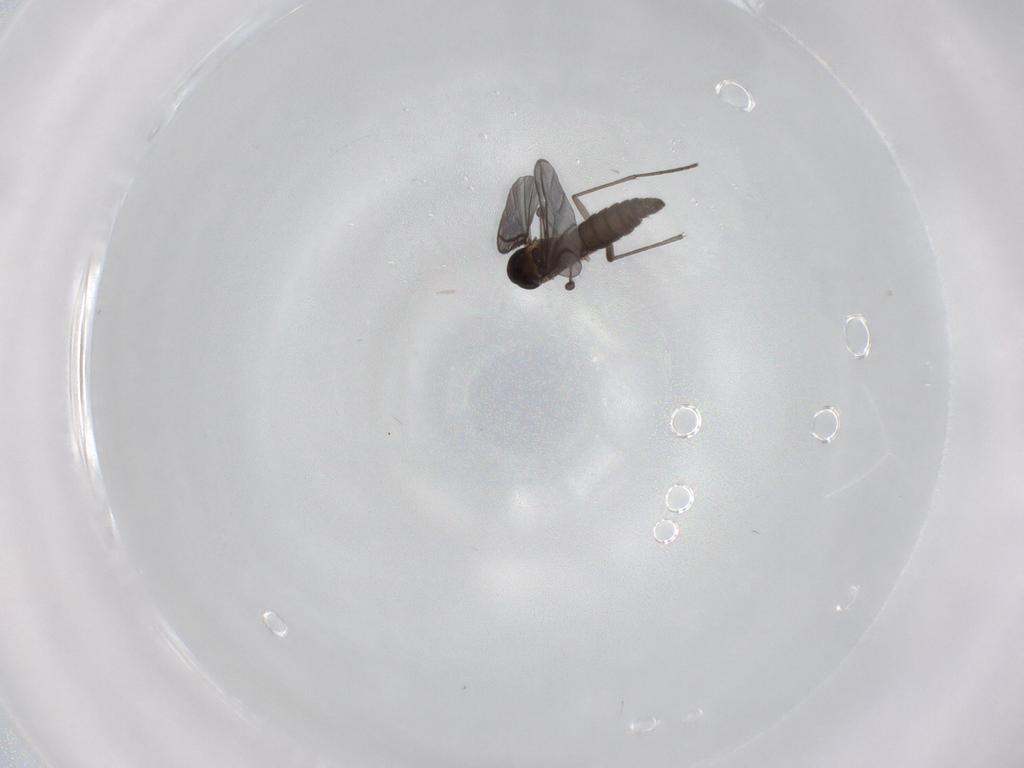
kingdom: Animalia
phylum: Arthropoda
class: Insecta
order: Diptera
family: Sciaridae
